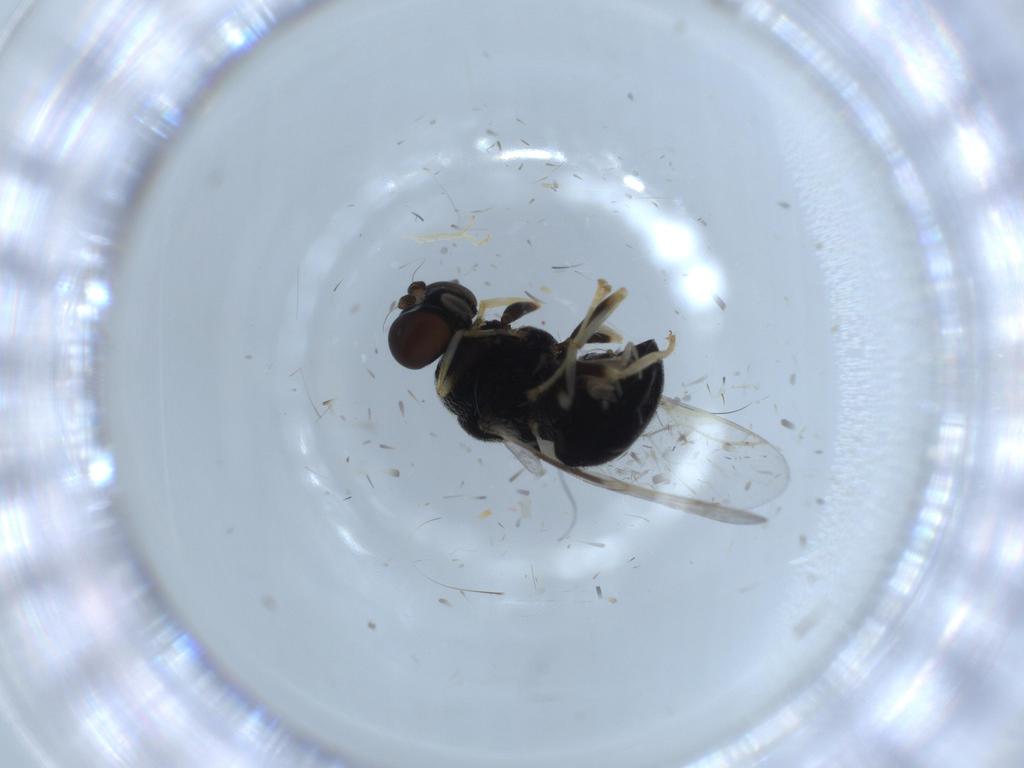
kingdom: Animalia
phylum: Arthropoda
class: Insecta
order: Diptera
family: Stratiomyidae
